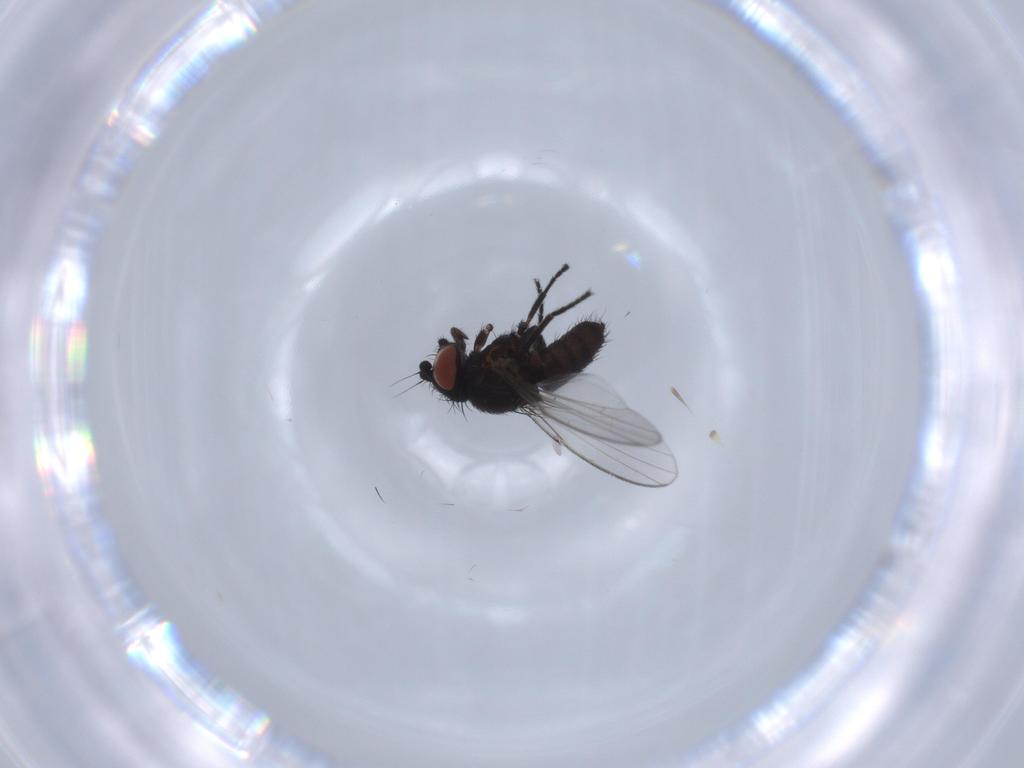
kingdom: Animalia
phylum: Arthropoda
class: Insecta
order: Diptera
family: Milichiidae
